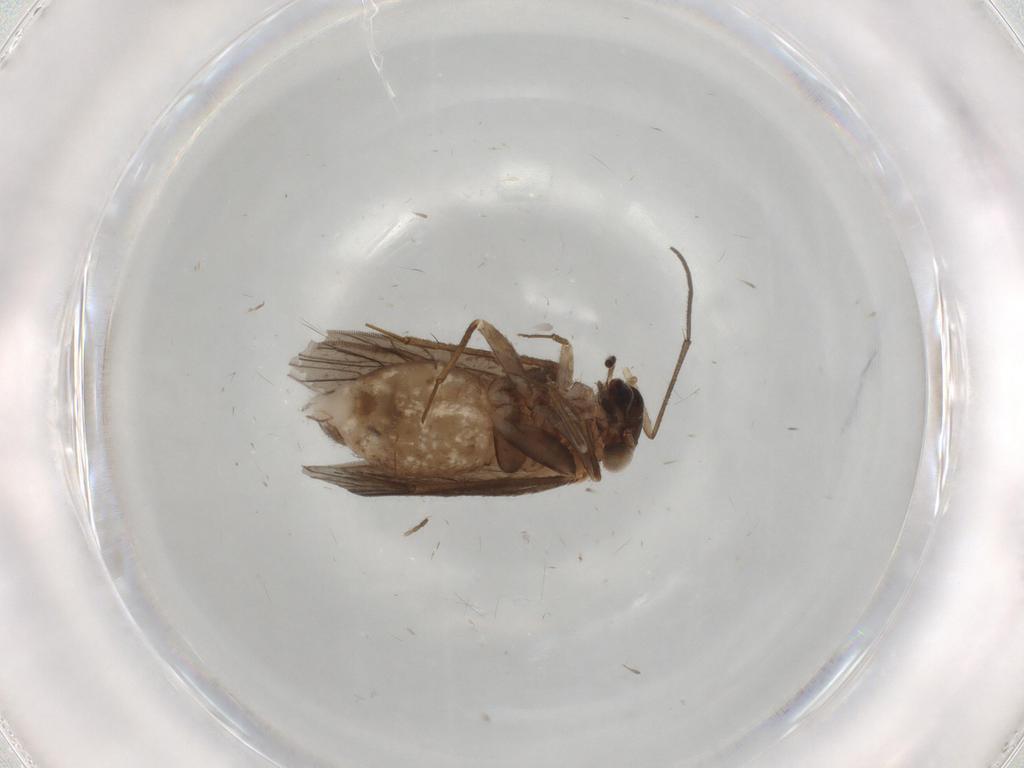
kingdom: Animalia
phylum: Arthropoda
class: Insecta
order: Psocodea
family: Lepidopsocidae
